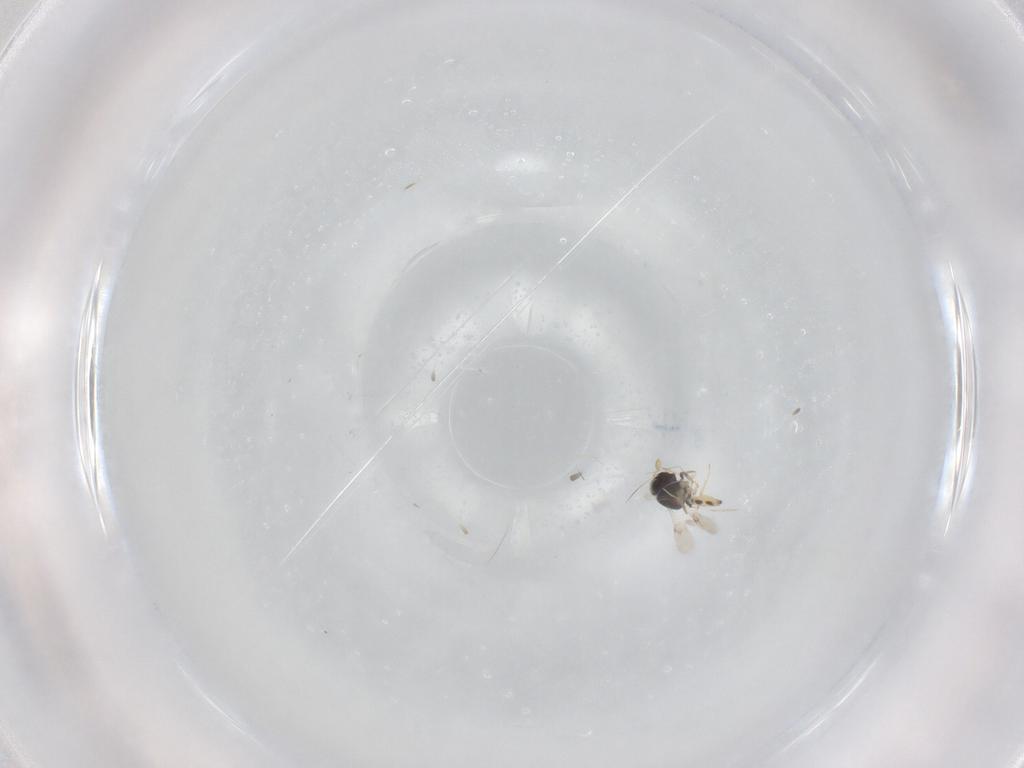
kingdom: Animalia
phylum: Arthropoda
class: Insecta
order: Hymenoptera
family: Scelionidae
